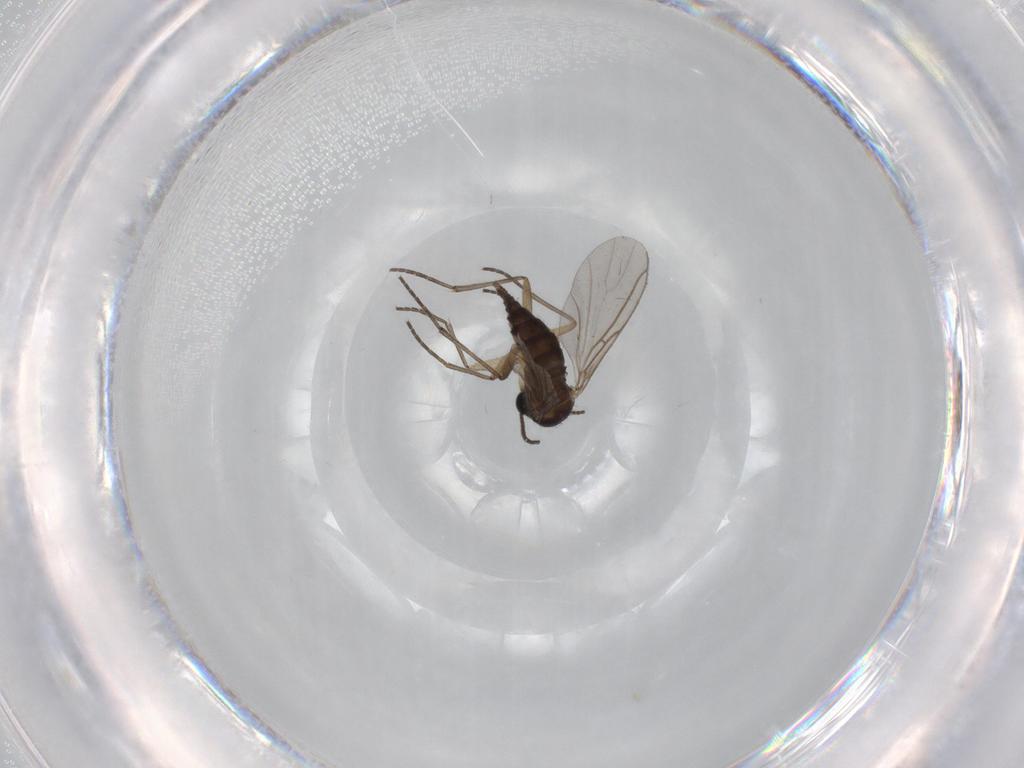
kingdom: Animalia
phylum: Arthropoda
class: Insecta
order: Diptera
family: Sciaridae
